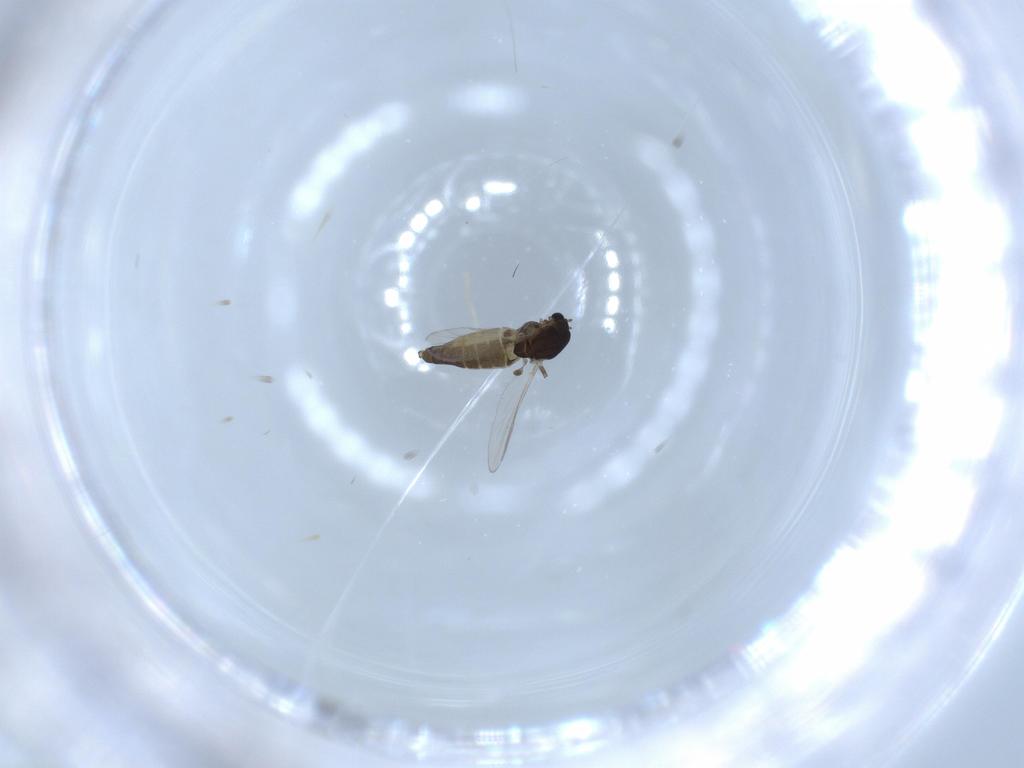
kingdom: Animalia
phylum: Arthropoda
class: Insecta
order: Diptera
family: Chironomidae
